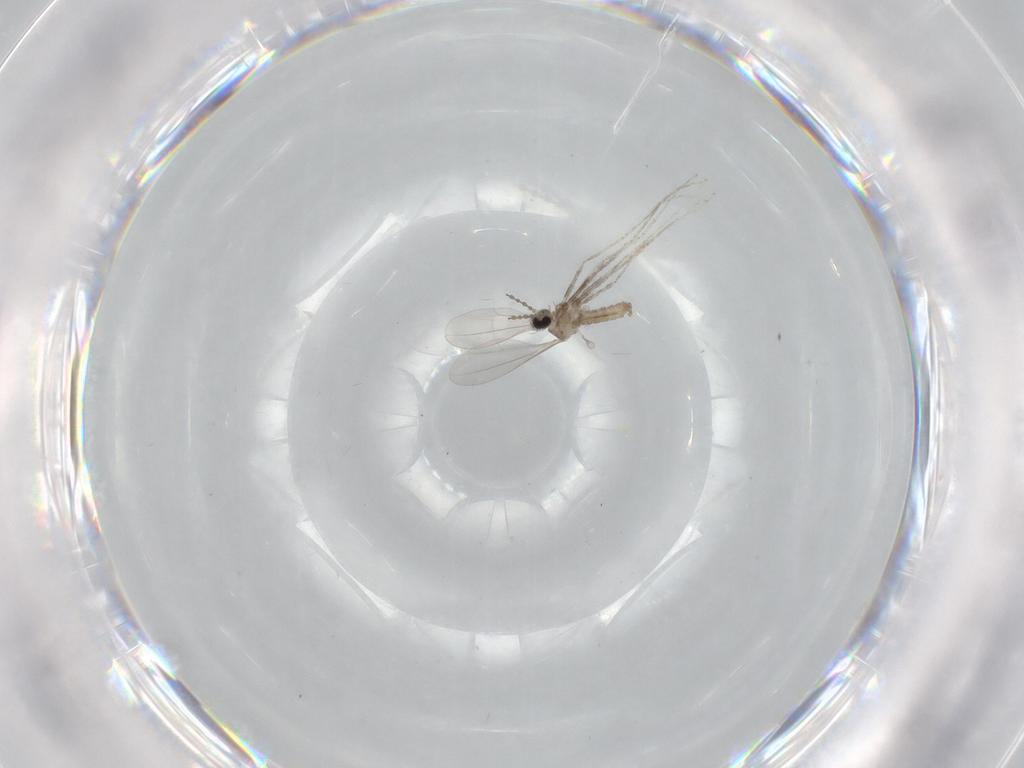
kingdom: Animalia
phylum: Arthropoda
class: Insecta
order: Diptera
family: Cecidomyiidae
